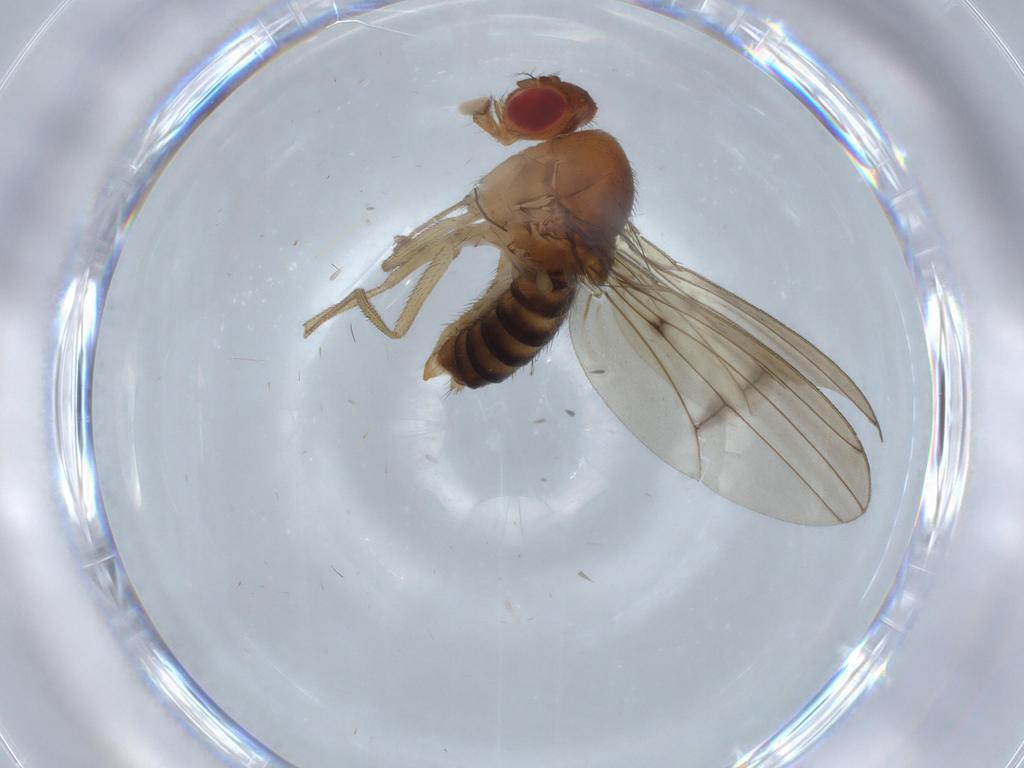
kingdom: Animalia
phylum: Arthropoda
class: Insecta
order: Diptera
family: Drosophilidae
